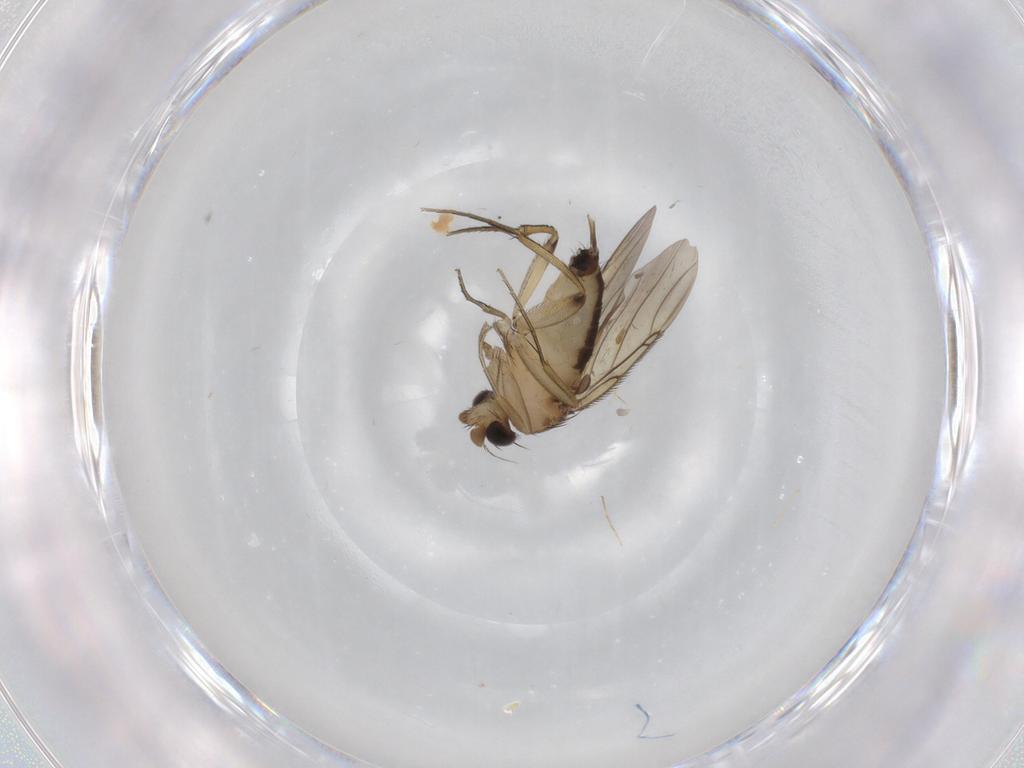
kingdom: Animalia
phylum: Arthropoda
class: Insecta
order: Diptera
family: Phoridae
